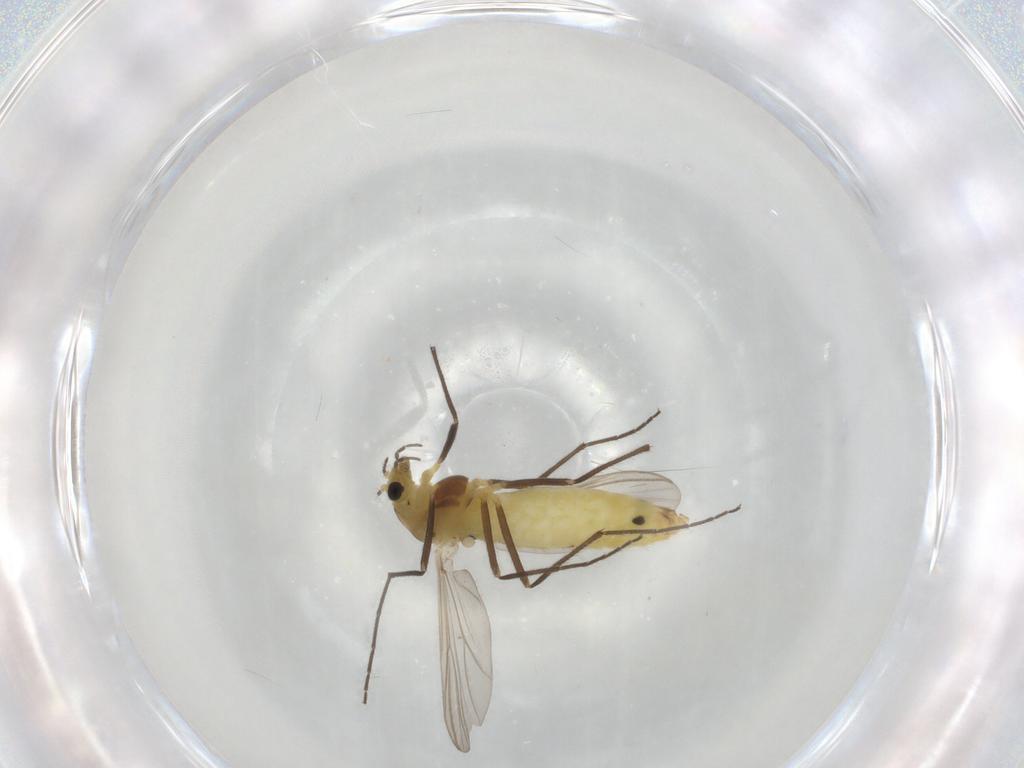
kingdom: Animalia
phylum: Arthropoda
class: Insecta
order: Diptera
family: Chironomidae
